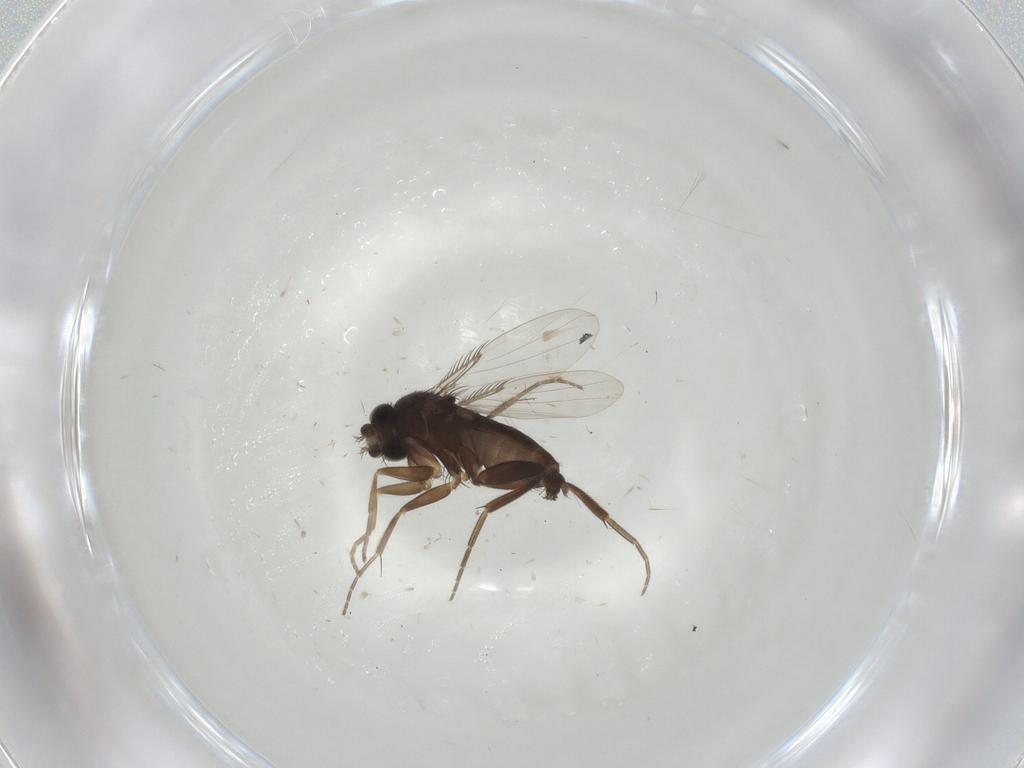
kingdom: Animalia
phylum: Arthropoda
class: Insecta
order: Diptera
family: Phoridae
